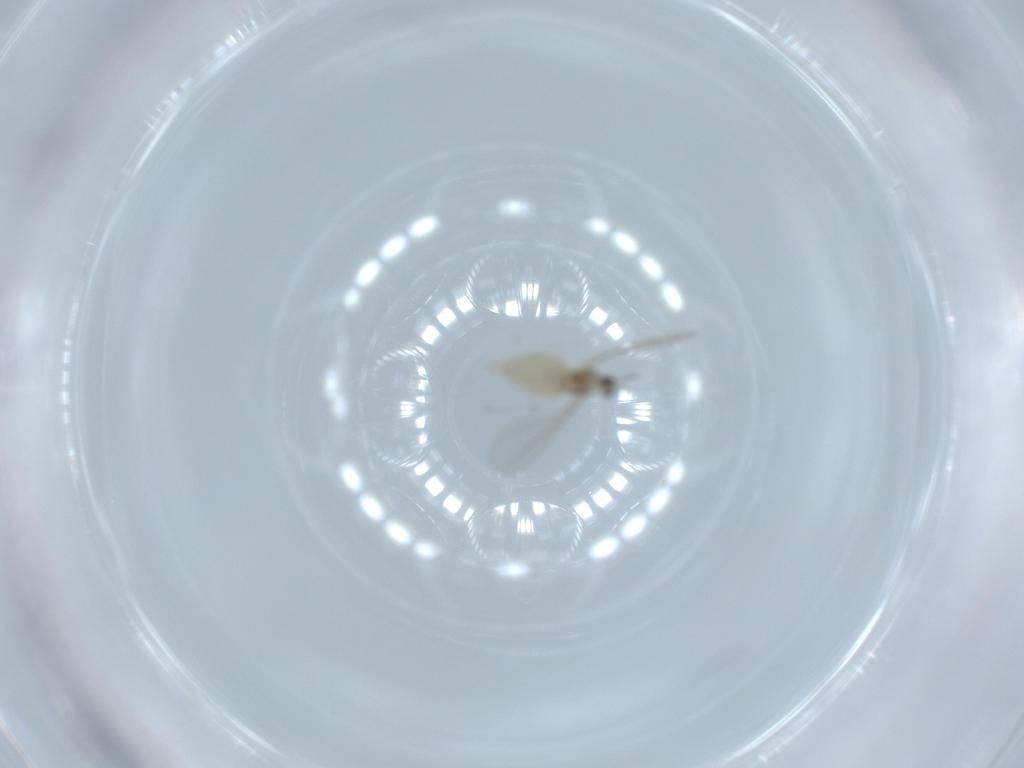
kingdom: Animalia
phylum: Arthropoda
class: Insecta
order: Diptera
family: Cecidomyiidae
